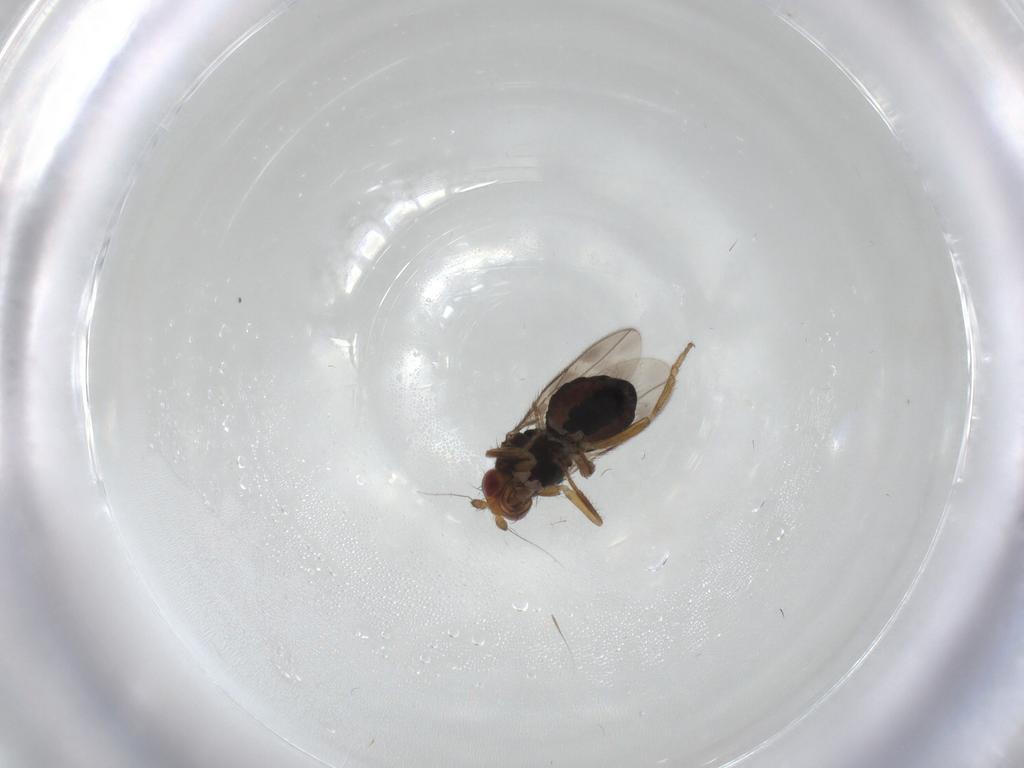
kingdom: Animalia
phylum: Arthropoda
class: Insecta
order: Diptera
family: Sphaeroceridae
